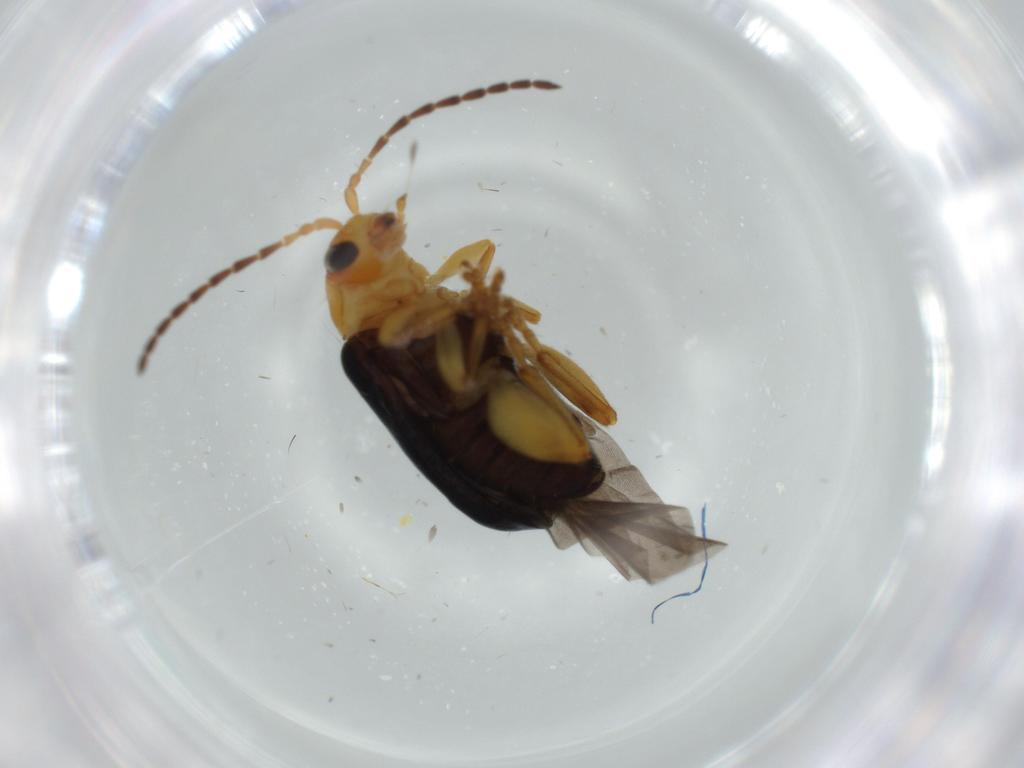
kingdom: Animalia
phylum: Arthropoda
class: Insecta
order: Coleoptera
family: Chrysomelidae
